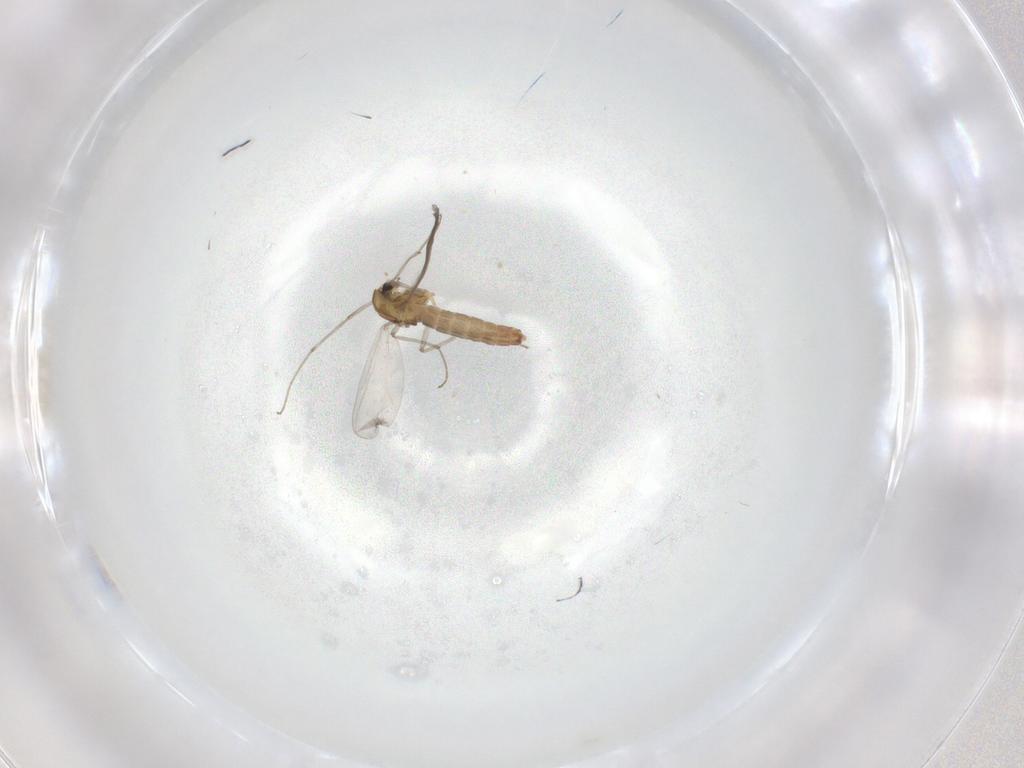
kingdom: Animalia
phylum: Arthropoda
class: Insecta
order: Diptera
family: Chironomidae
